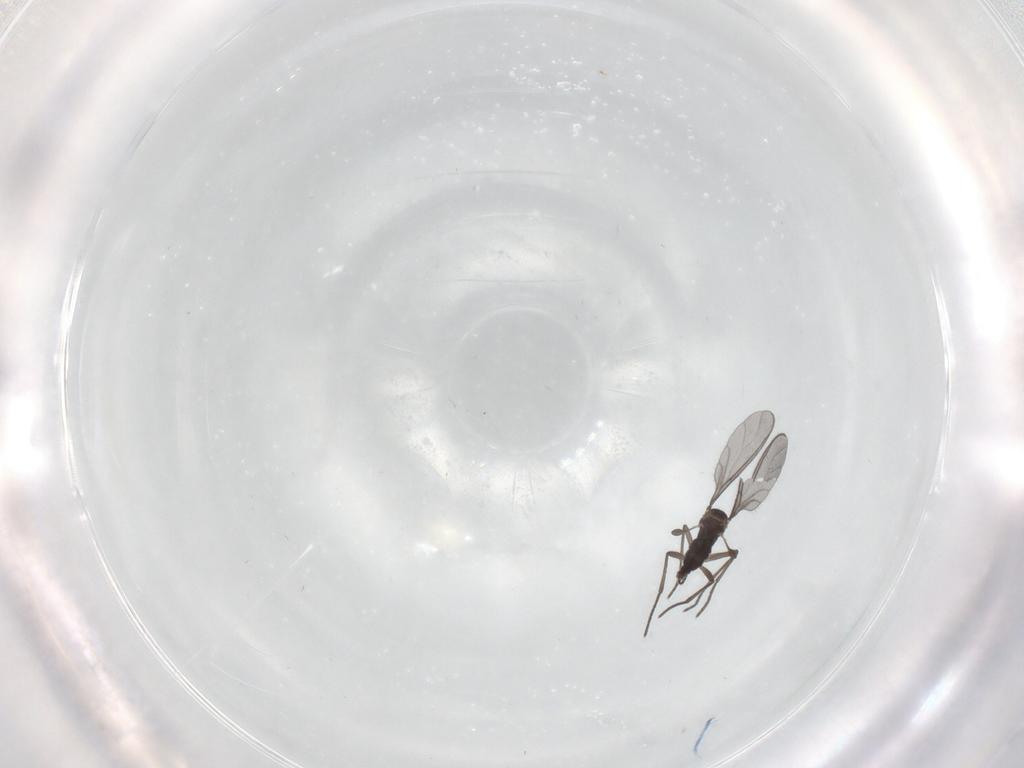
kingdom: Animalia
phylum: Arthropoda
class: Insecta
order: Diptera
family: Sciaridae
